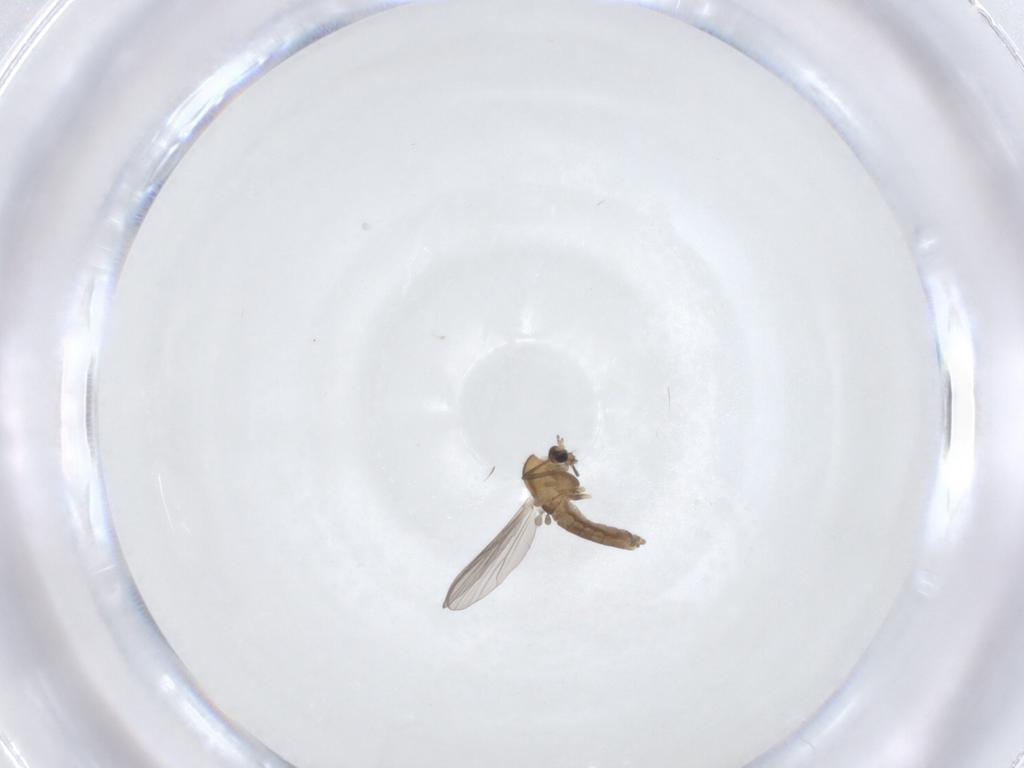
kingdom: Animalia
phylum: Arthropoda
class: Insecta
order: Diptera
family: Chironomidae
